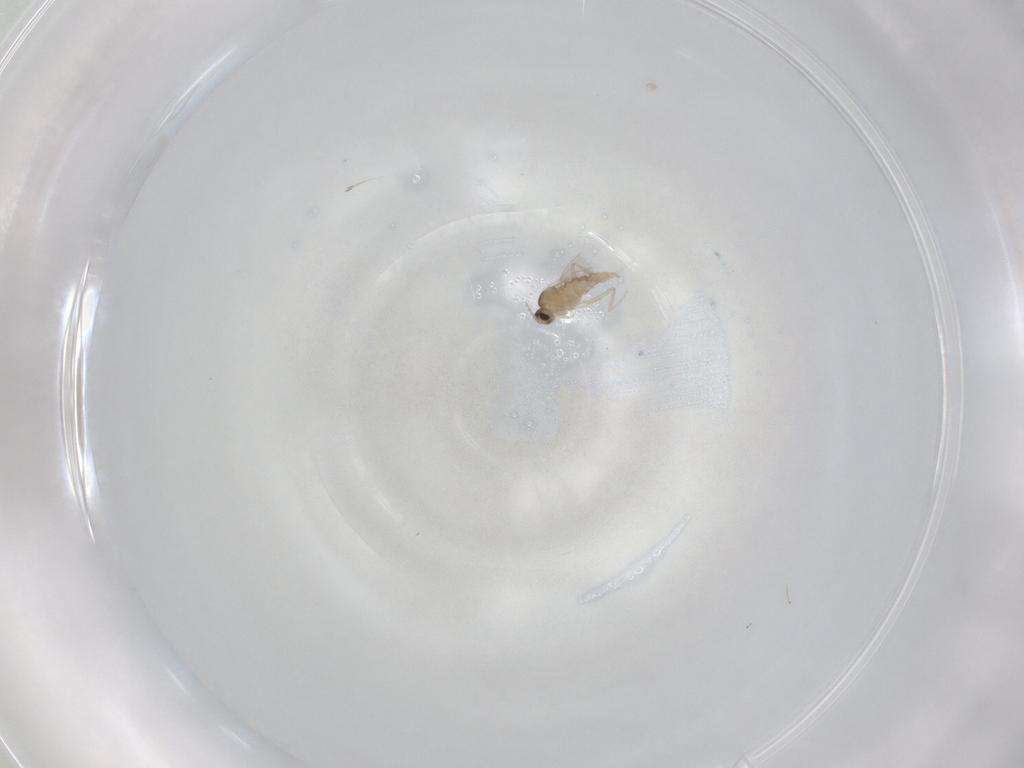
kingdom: Animalia
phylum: Arthropoda
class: Insecta
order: Diptera
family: Cecidomyiidae
